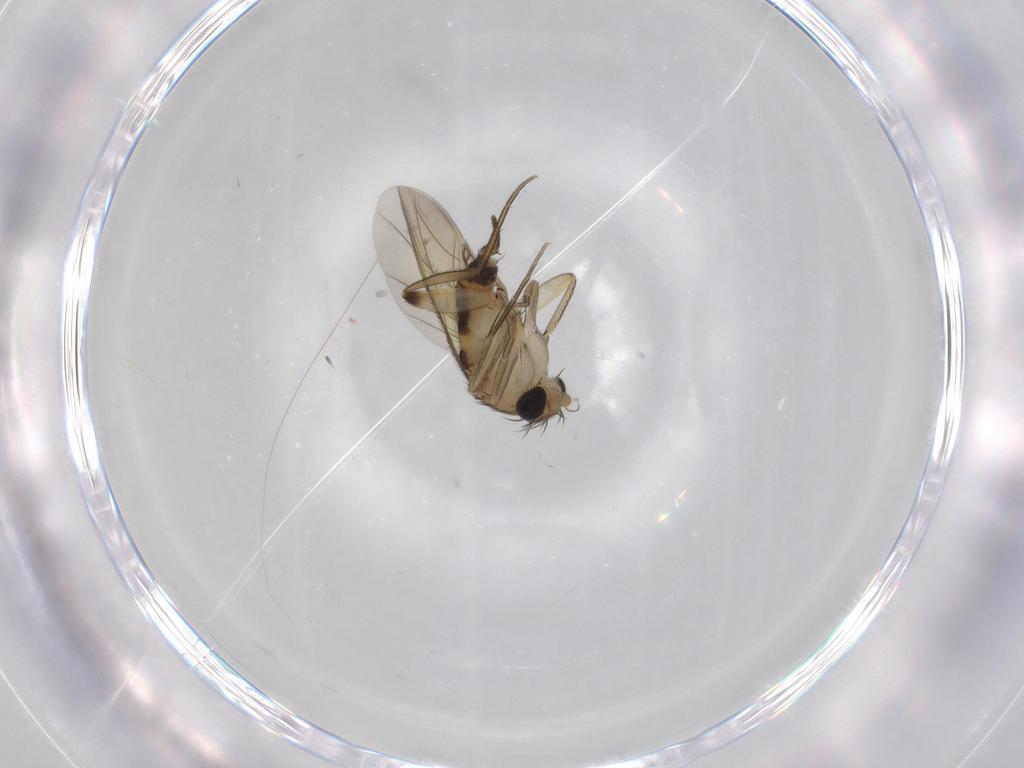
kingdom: Animalia
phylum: Arthropoda
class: Insecta
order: Diptera
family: Phoridae
